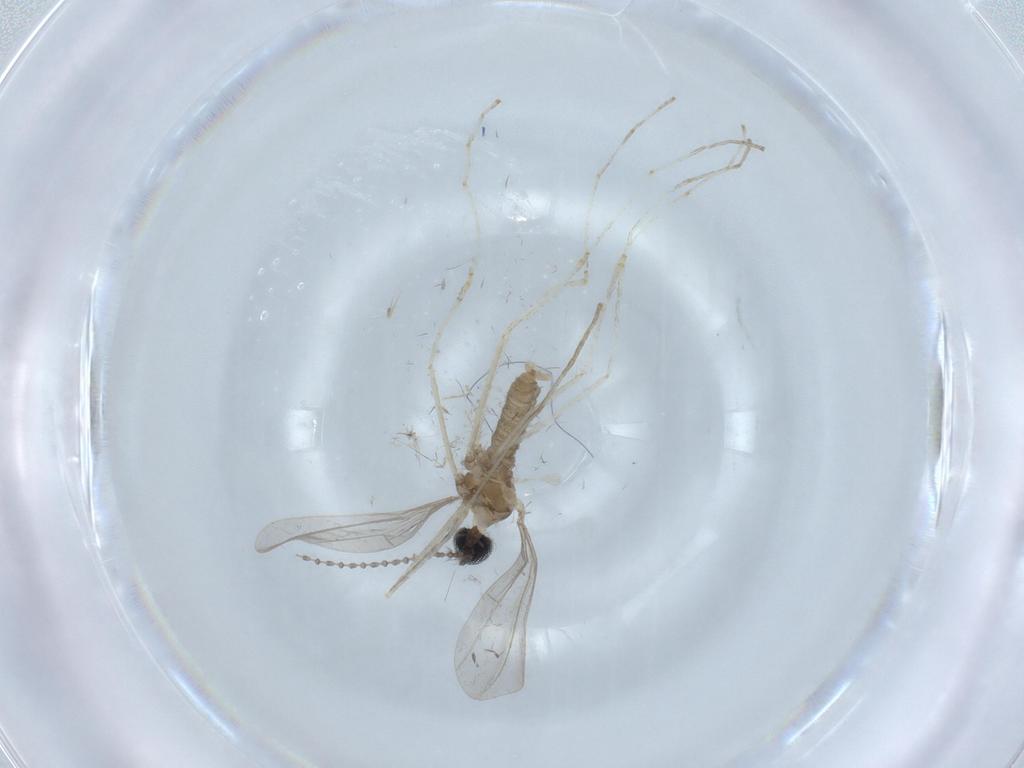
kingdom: Animalia
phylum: Arthropoda
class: Insecta
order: Diptera
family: Cecidomyiidae
